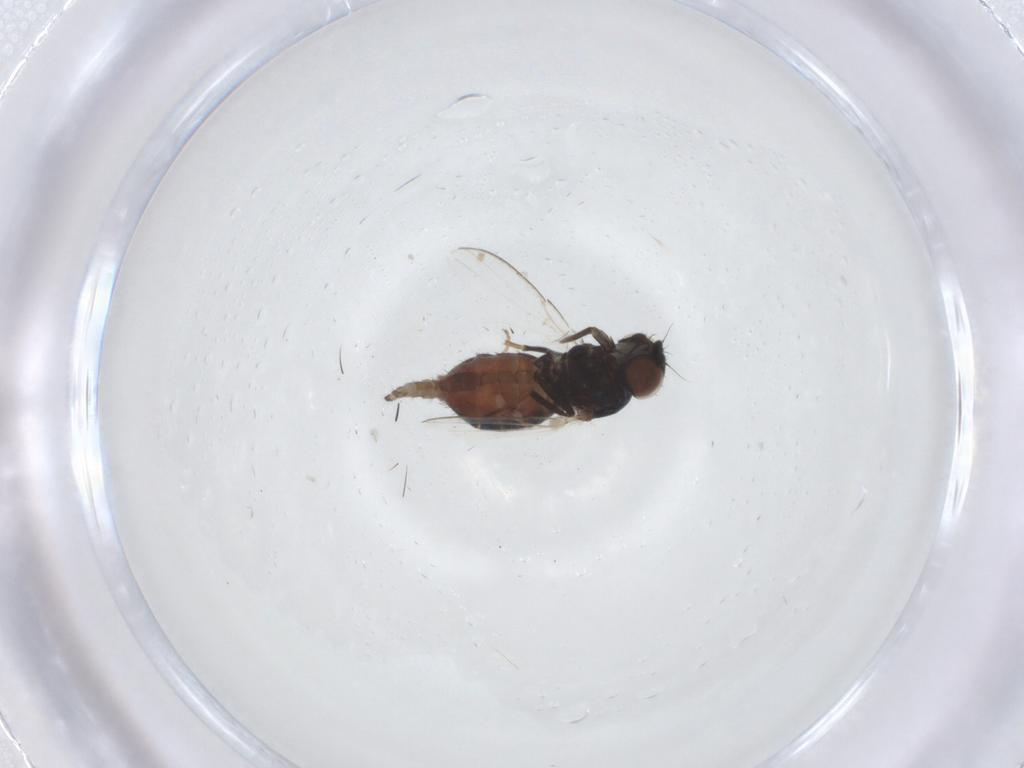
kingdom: Animalia
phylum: Arthropoda
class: Insecta
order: Diptera
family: Milichiidae
